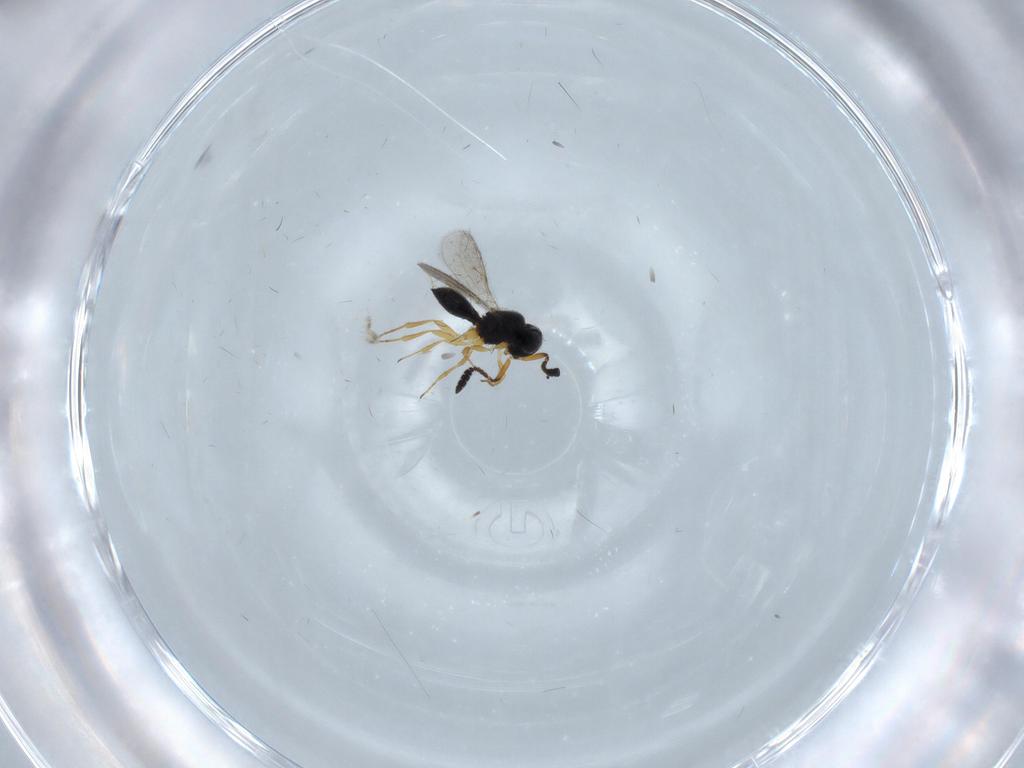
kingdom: Animalia
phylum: Arthropoda
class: Insecta
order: Hymenoptera
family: Scelionidae
